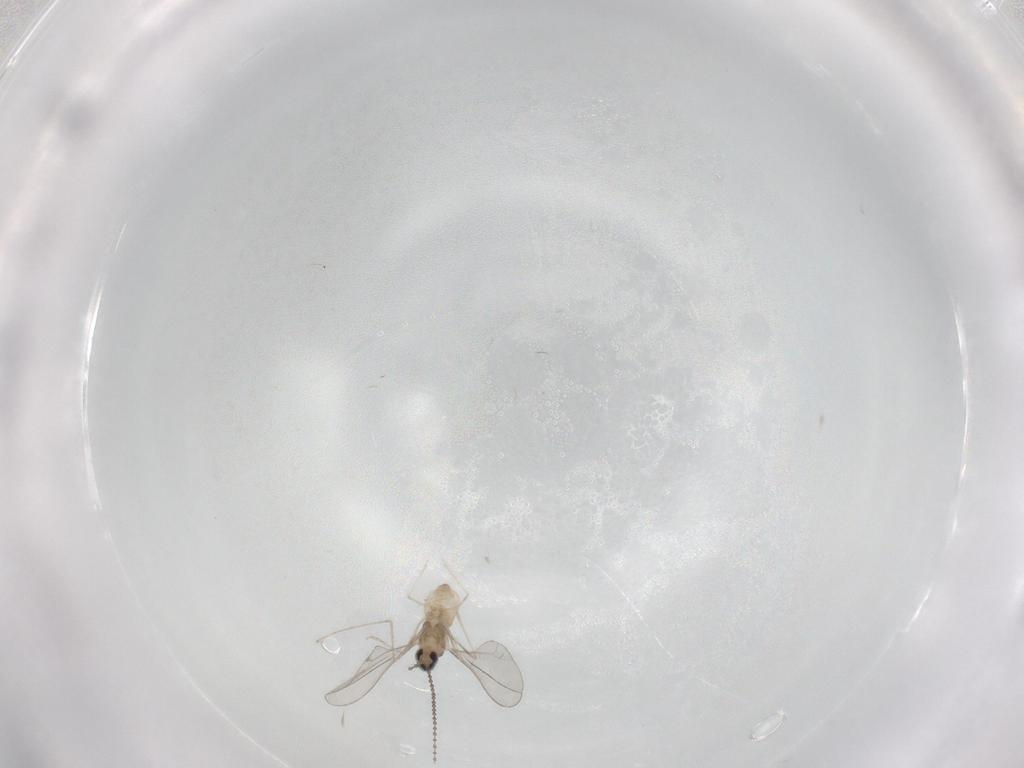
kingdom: Animalia
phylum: Arthropoda
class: Insecta
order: Diptera
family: Cecidomyiidae
